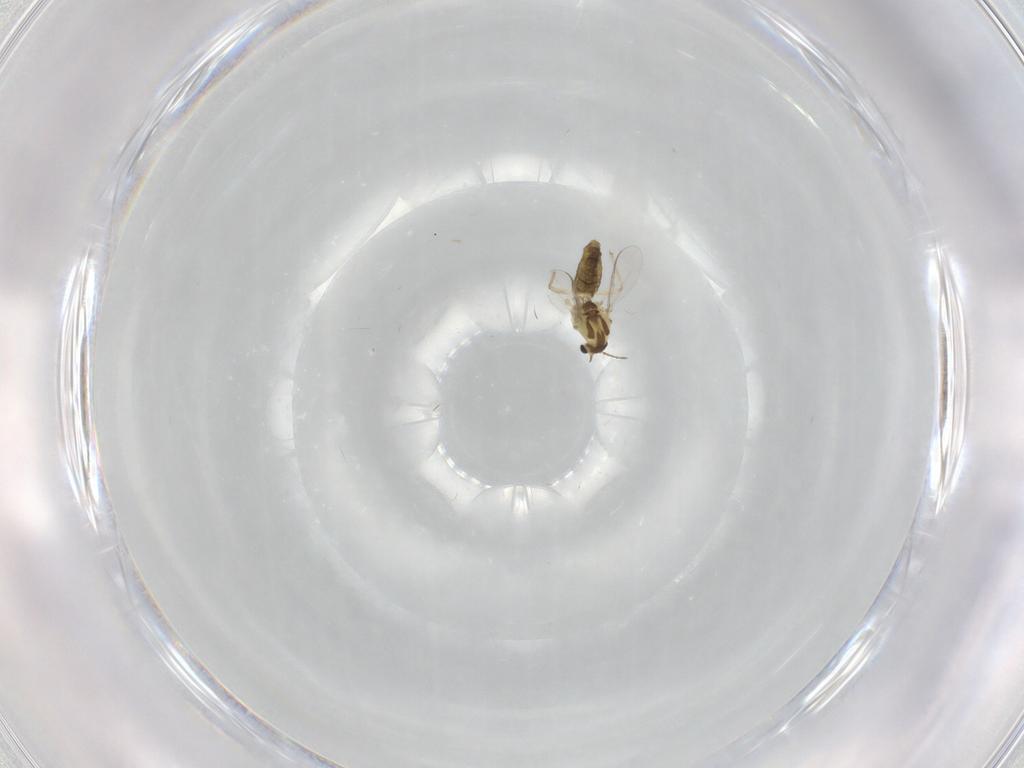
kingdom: Animalia
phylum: Arthropoda
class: Insecta
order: Diptera
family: Chironomidae
